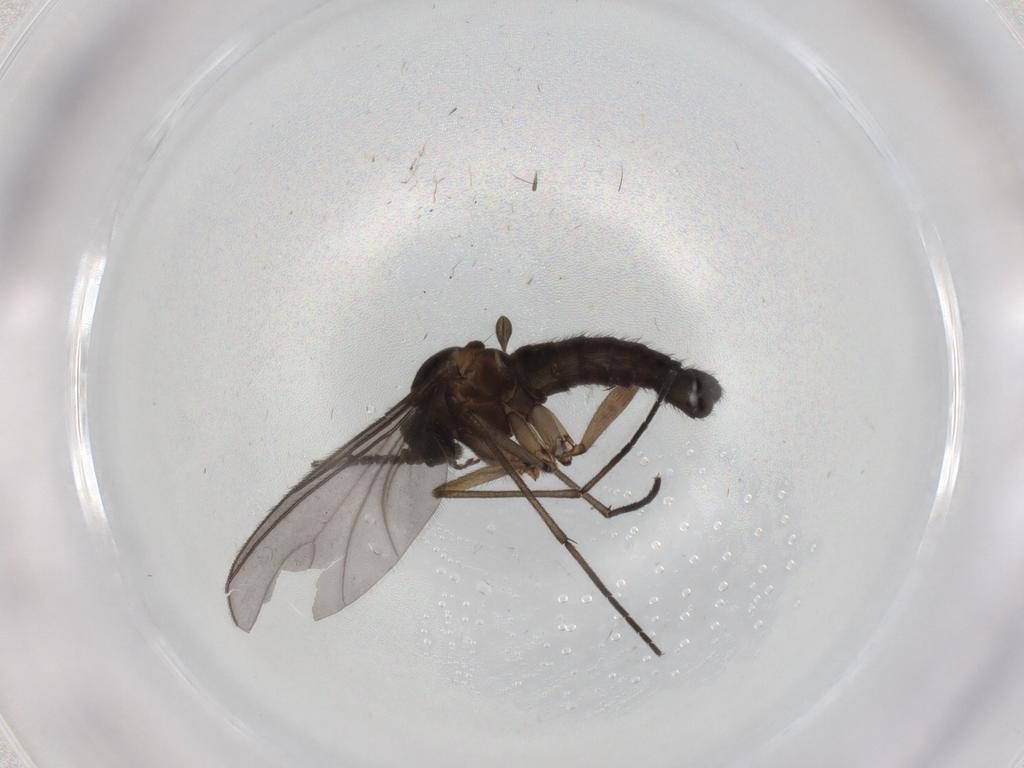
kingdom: Animalia
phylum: Arthropoda
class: Insecta
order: Diptera
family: Sciaridae
